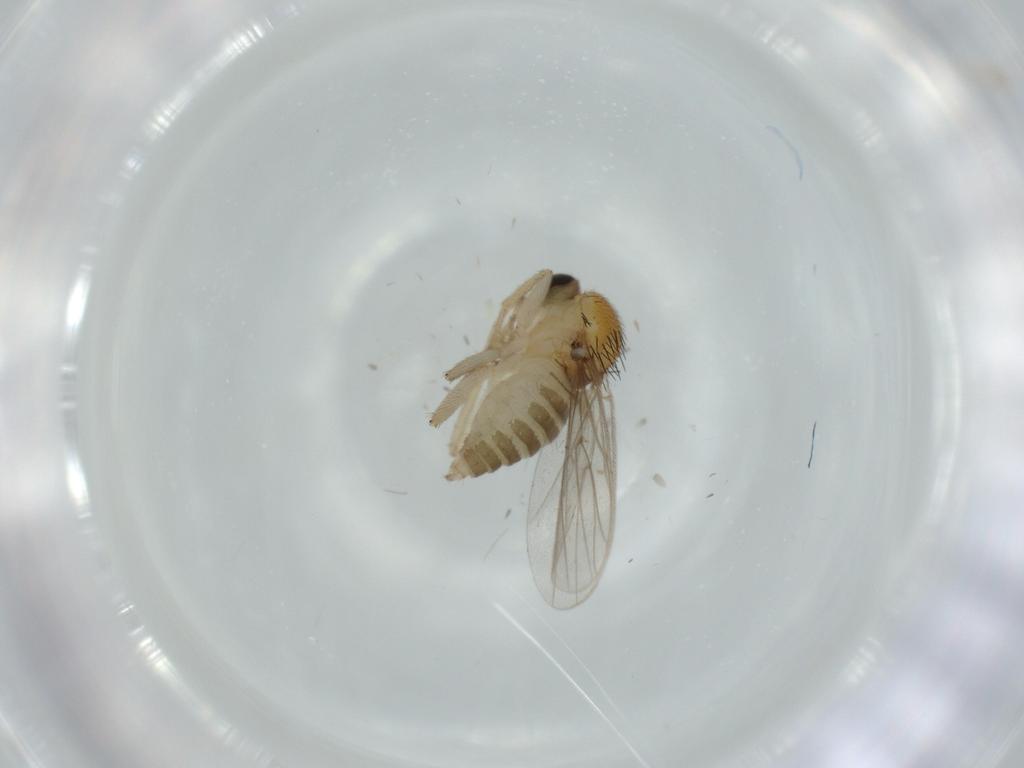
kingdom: Animalia
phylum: Arthropoda
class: Insecta
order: Diptera
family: Hybotidae
